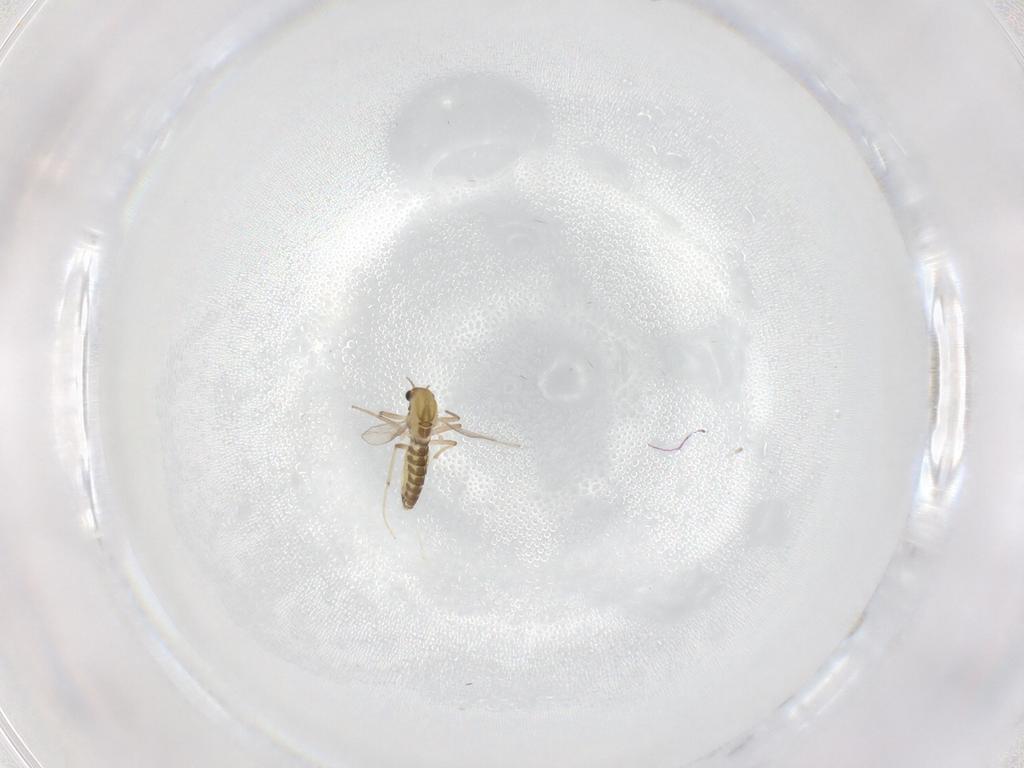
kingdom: Animalia
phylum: Arthropoda
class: Insecta
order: Diptera
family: Chironomidae
